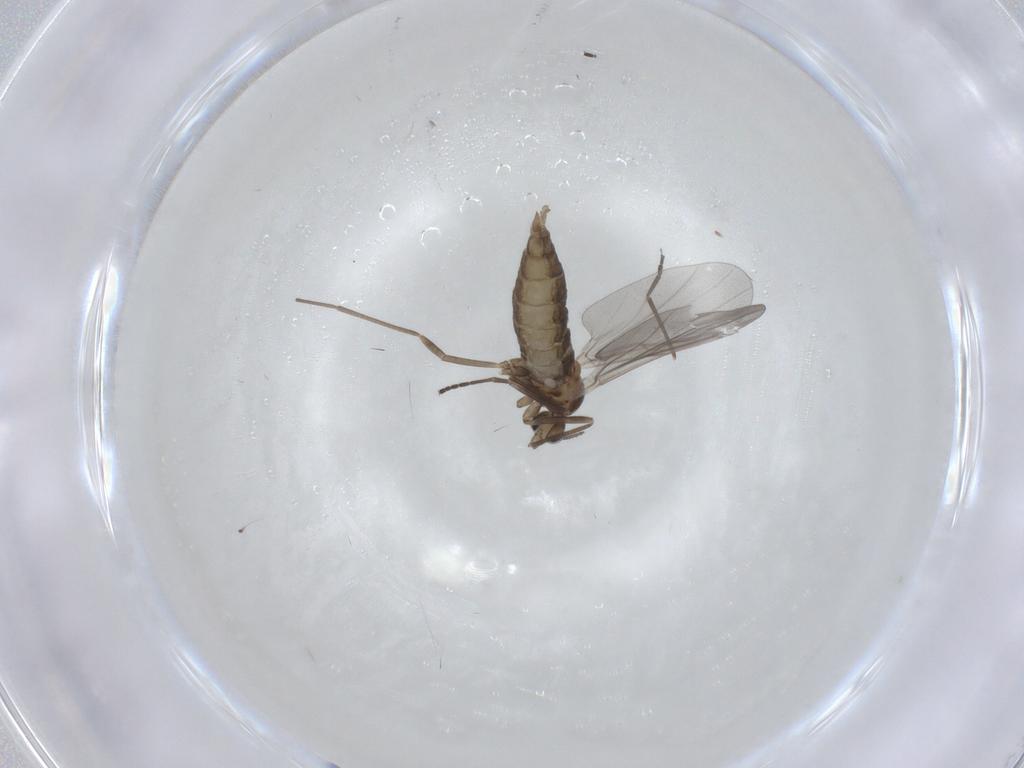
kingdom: Animalia
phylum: Arthropoda
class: Insecta
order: Diptera
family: Cecidomyiidae
